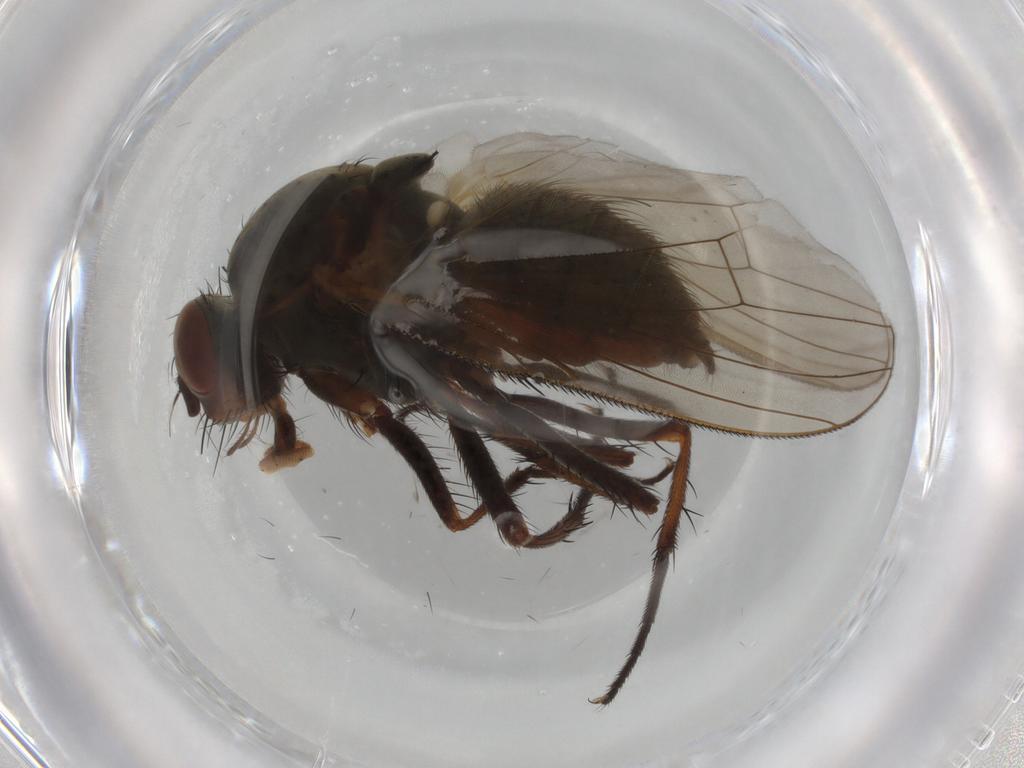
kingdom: Animalia
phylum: Arthropoda
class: Insecta
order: Diptera
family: Anthomyiidae
